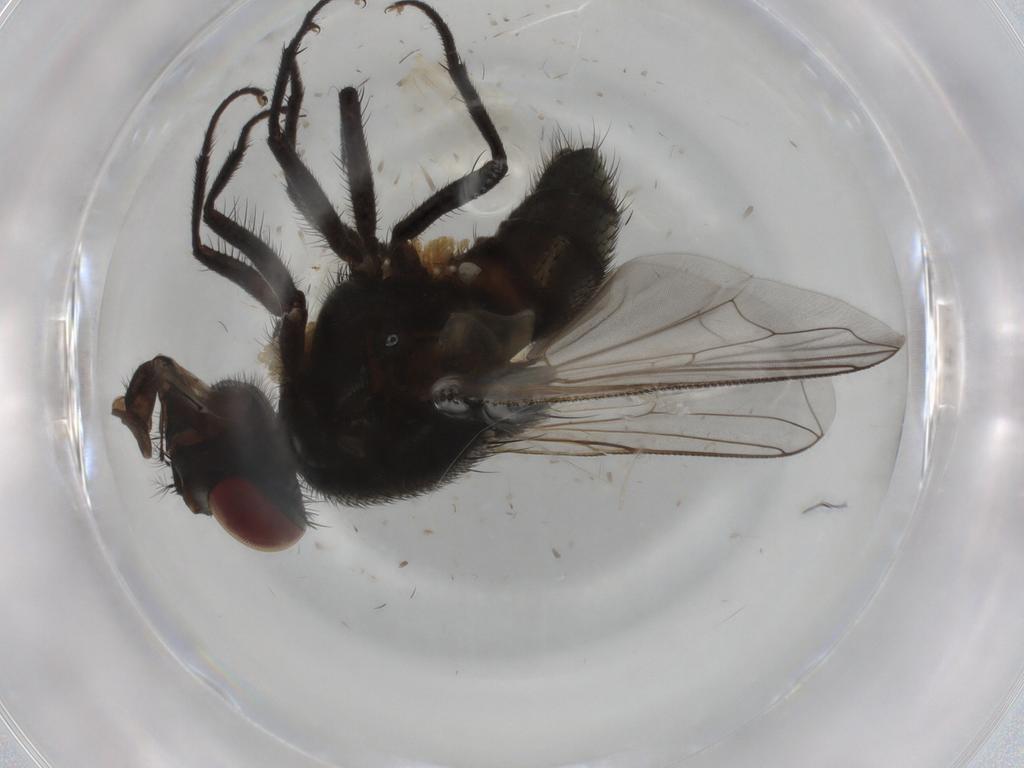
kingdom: Animalia
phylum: Arthropoda
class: Insecta
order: Diptera
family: Muscidae
